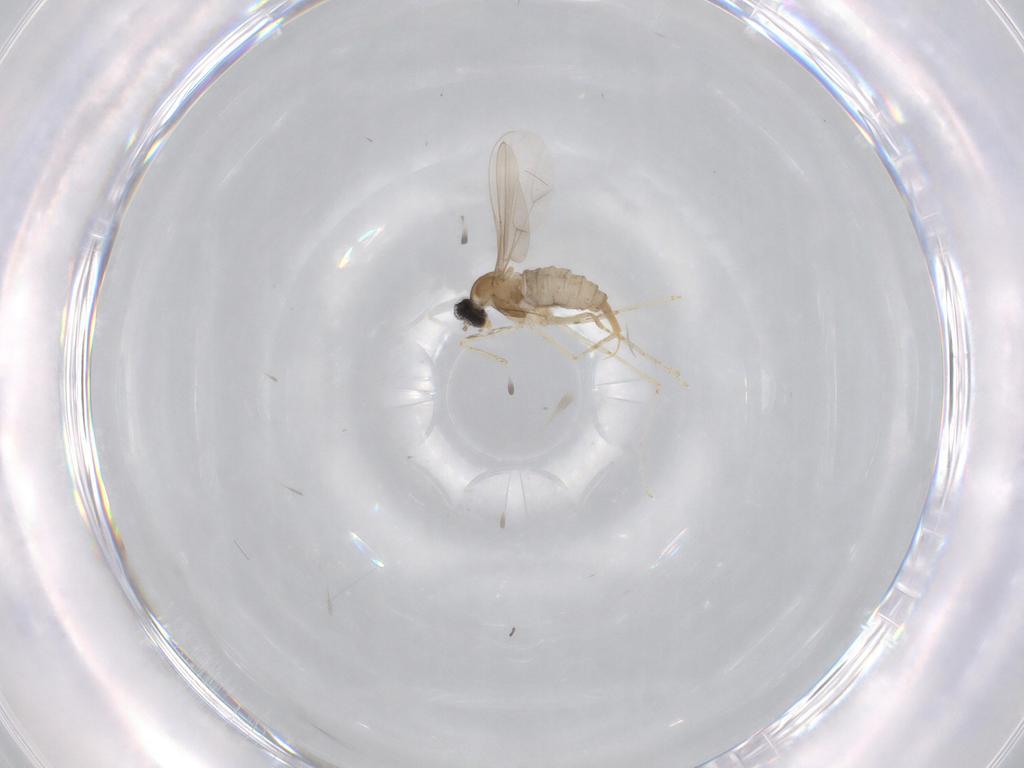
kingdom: Animalia
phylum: Arthropoda
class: Insecta
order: Diptera
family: Cecidomyiidae
